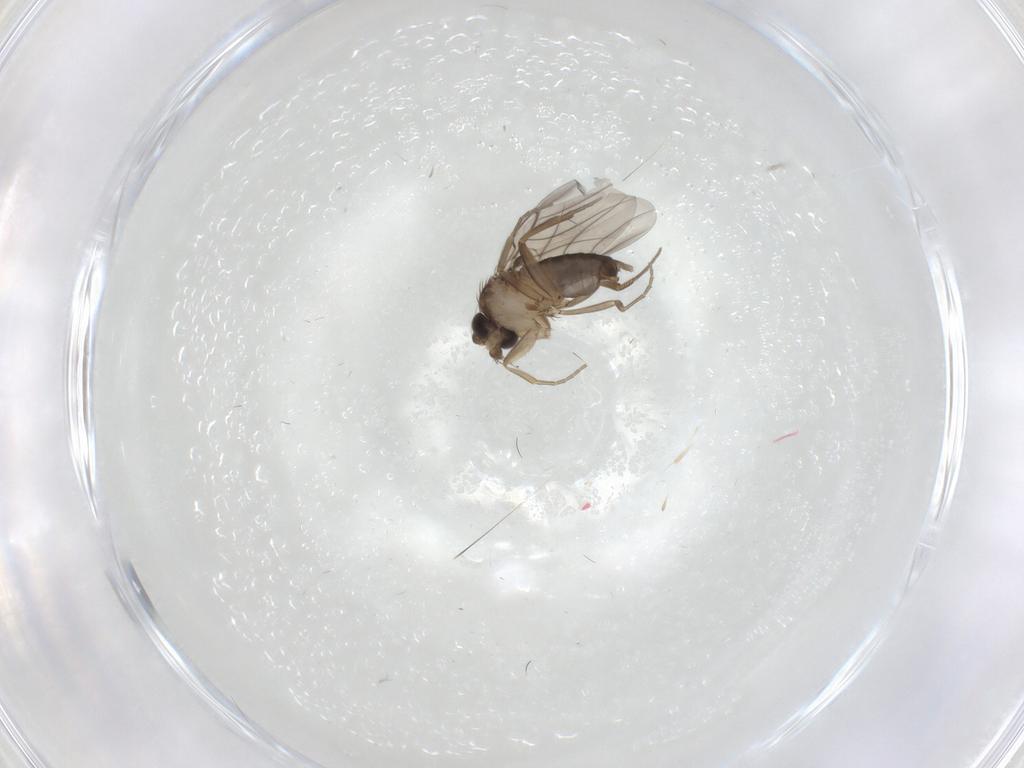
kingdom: Animalia
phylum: Arthropoda
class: Insecta
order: Diptera
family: Phoridae
